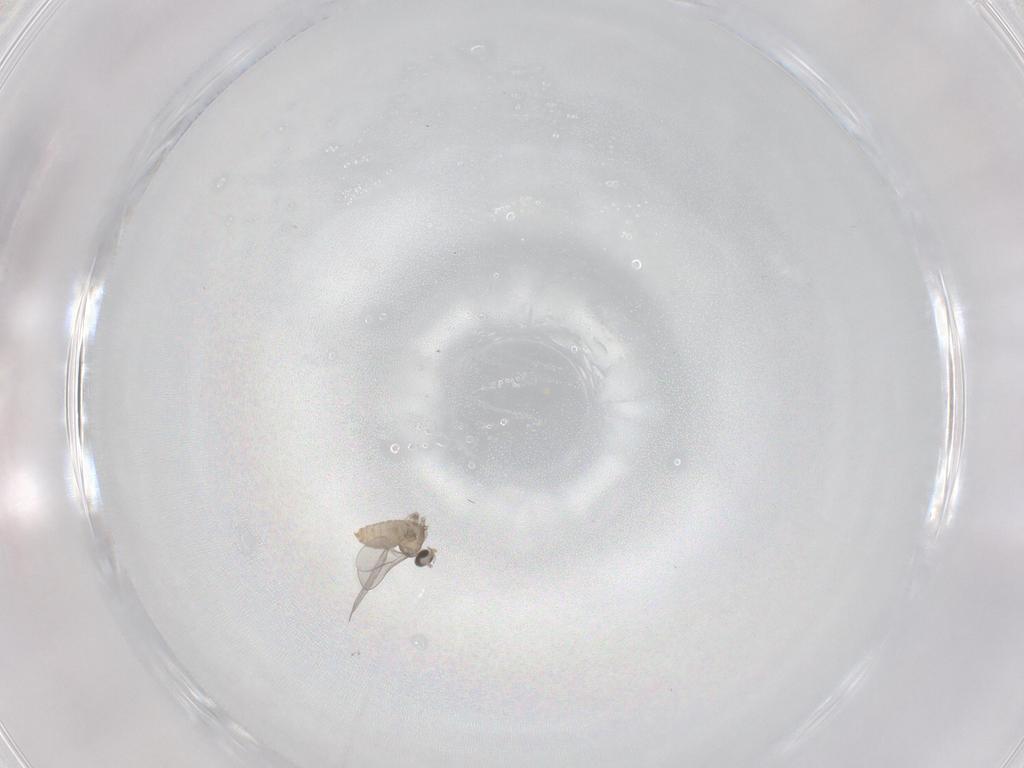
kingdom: Animalia
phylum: Arthropoda
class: Insecta
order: Diptera
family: Cecidomyiidae
